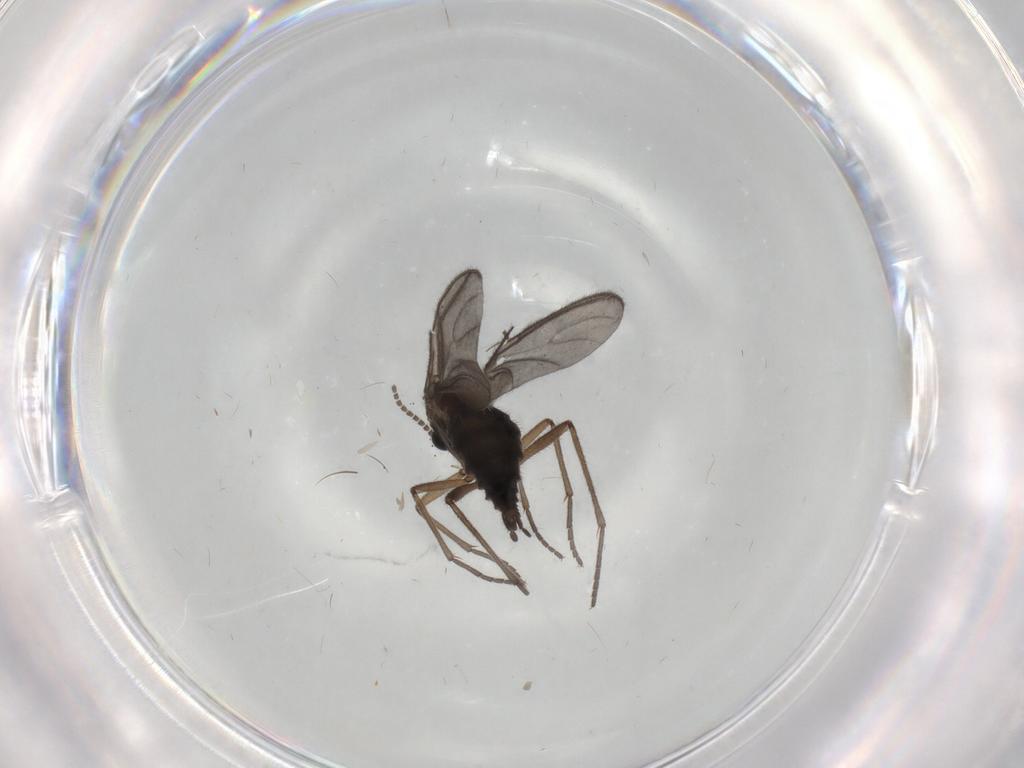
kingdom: Animalia
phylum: Arthropoda
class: Insecta
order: Diptera
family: Sciaridae
